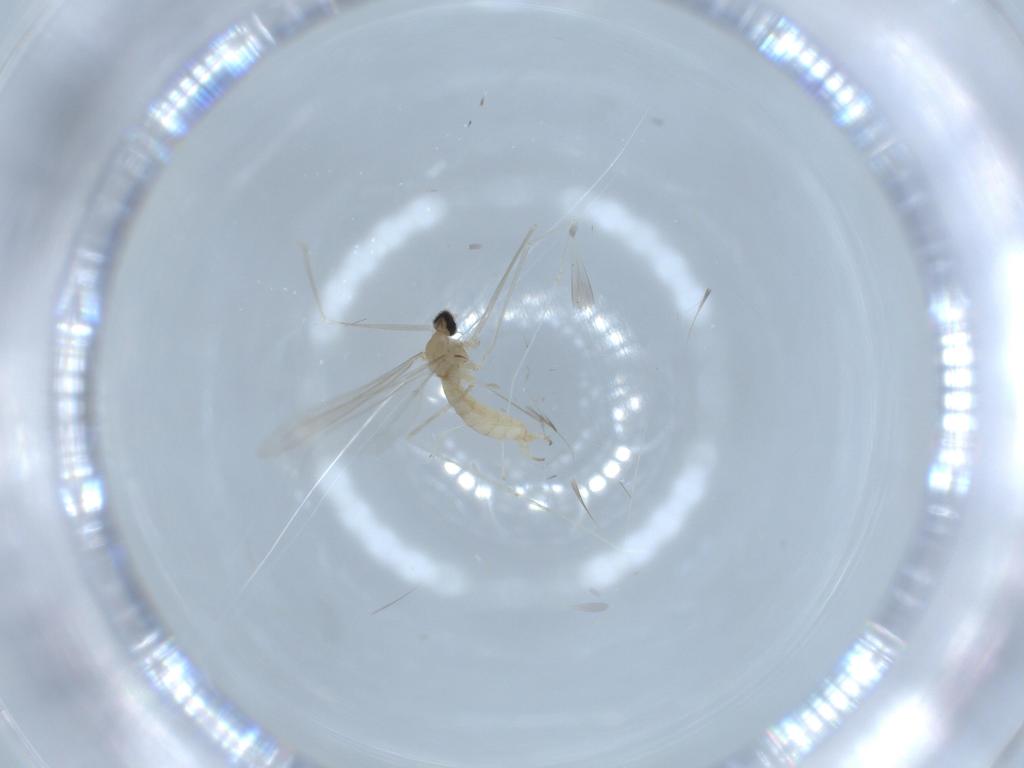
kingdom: Animalia
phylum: Arthropoda
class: Insecta
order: Diptera
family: Cecidomyiidae
